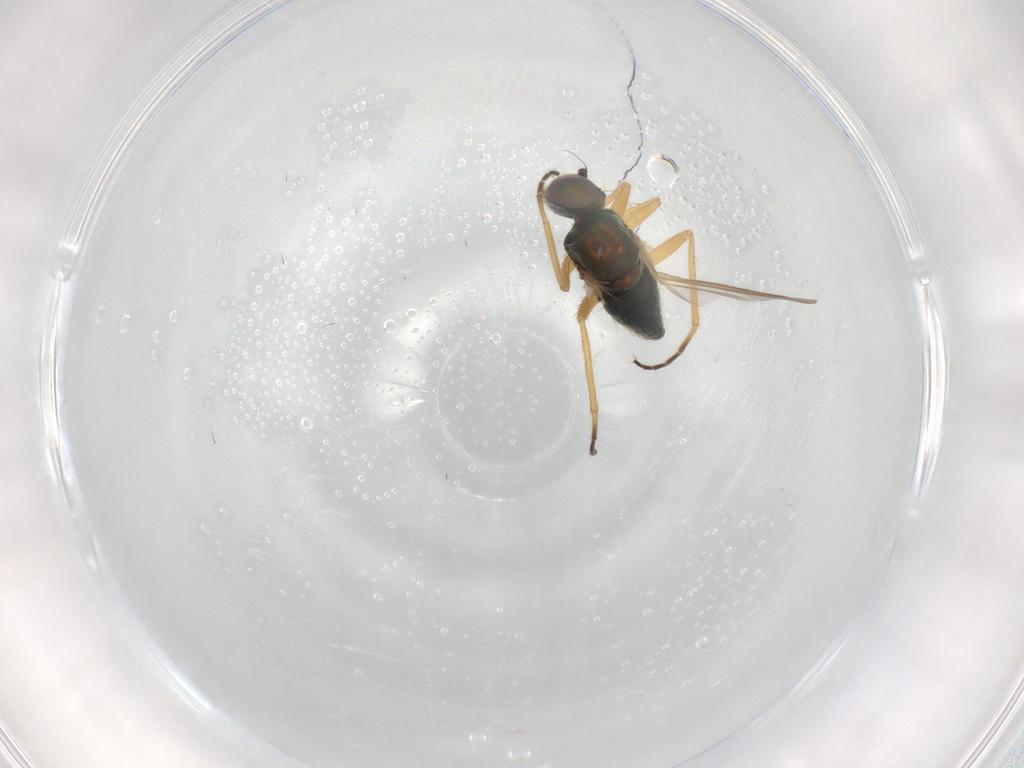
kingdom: Animalia
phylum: Arthropoda
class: Insecta
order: Diptera
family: Dolichopodidae
